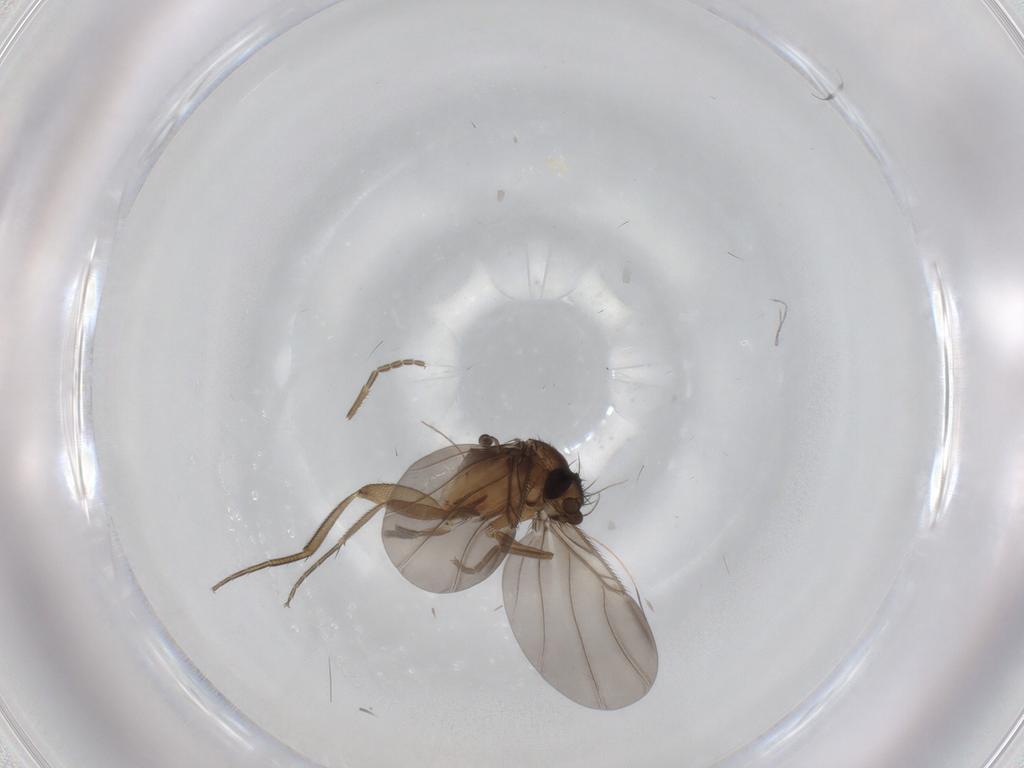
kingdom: Animalia
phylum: Arthropoda
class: Insecta
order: Diptera
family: Phoridae
